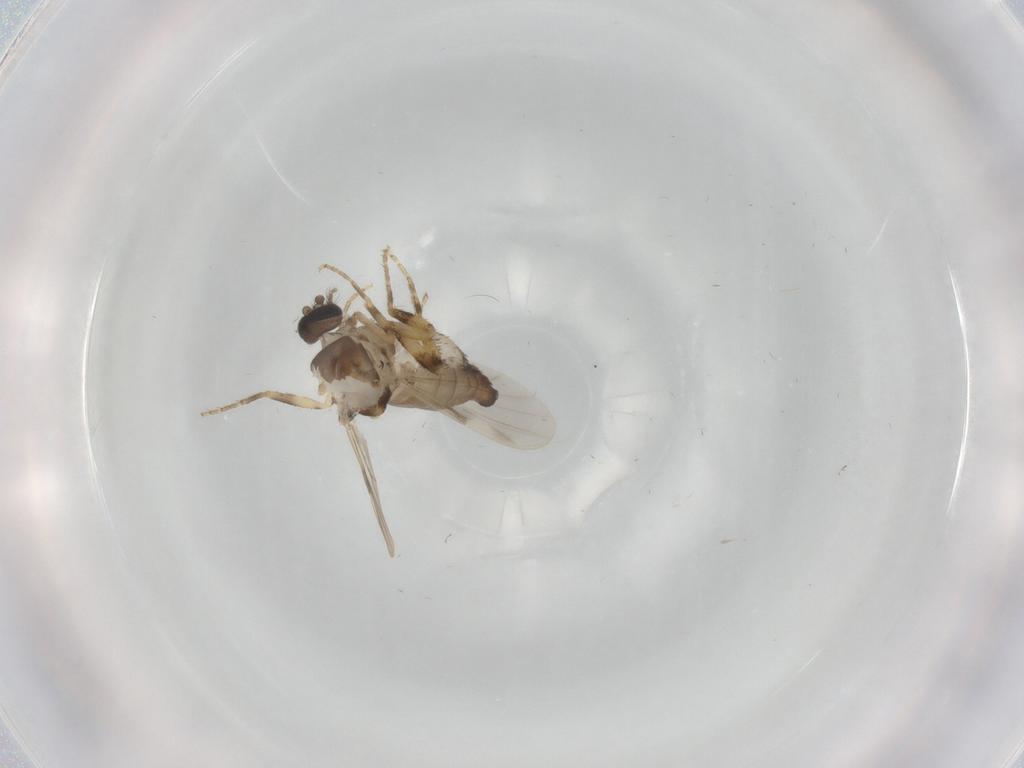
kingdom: Animalia
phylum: Arthropoda
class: Insecta
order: Diptera
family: Ceratopogonidae
